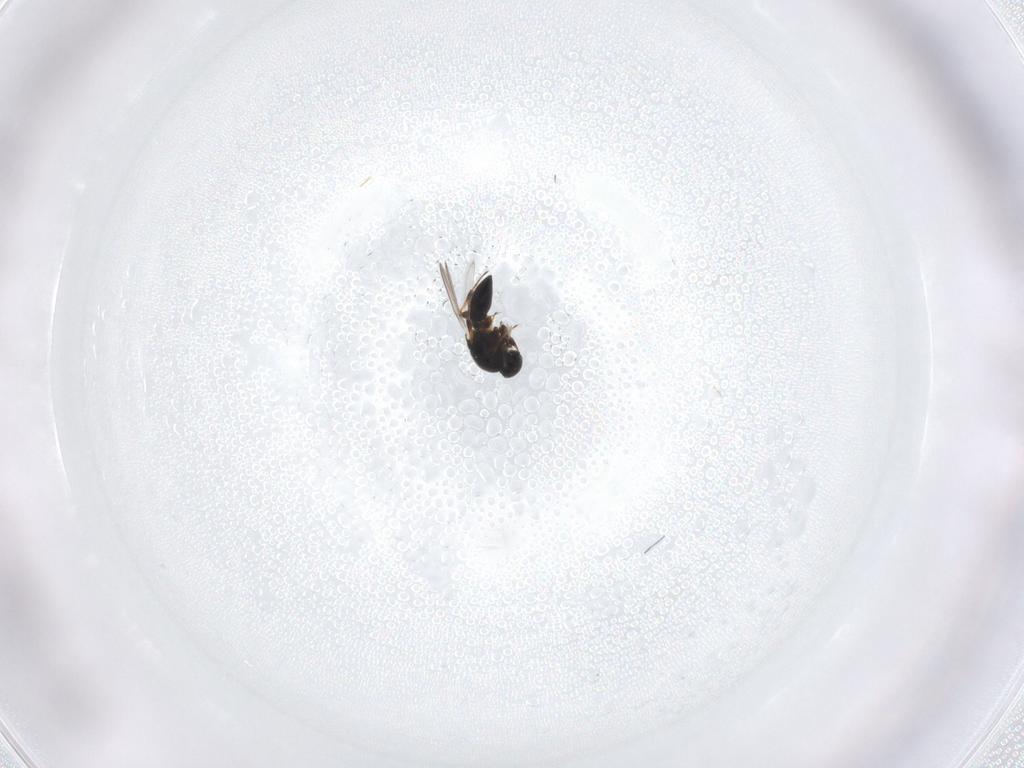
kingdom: Animalia
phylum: Arthropoda
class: Insecta
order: Hymenoptera
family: Platygastridae
